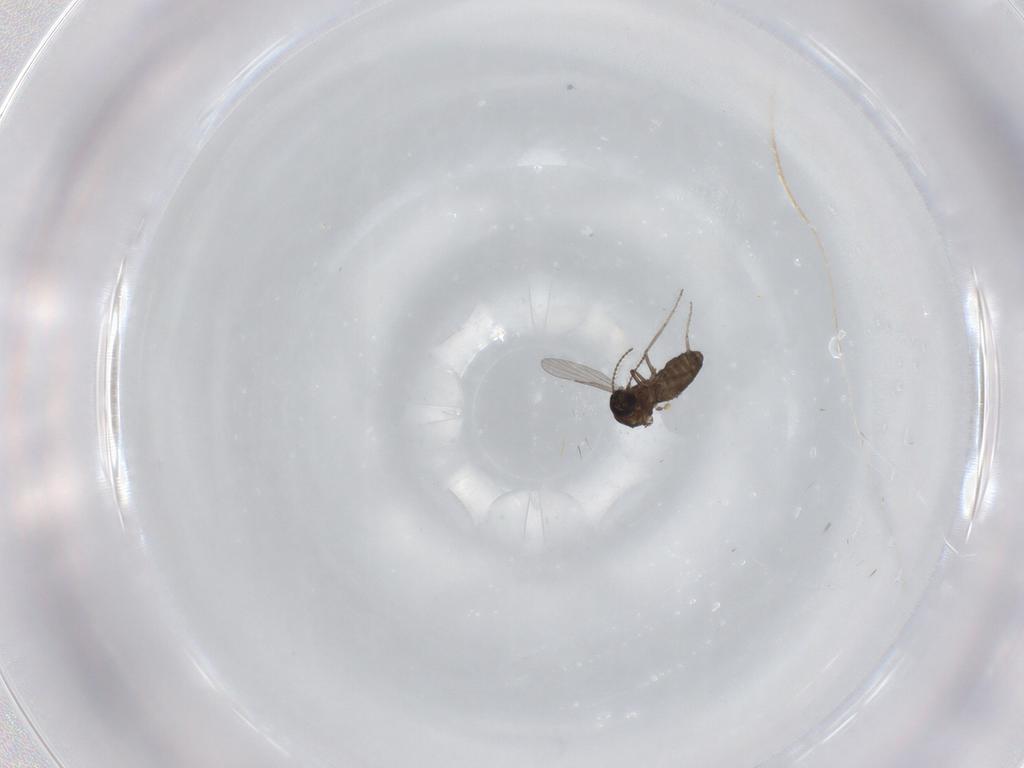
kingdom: Animalia
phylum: Arthropoda
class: Insecta
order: Diptera
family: Ceratopogonidae
